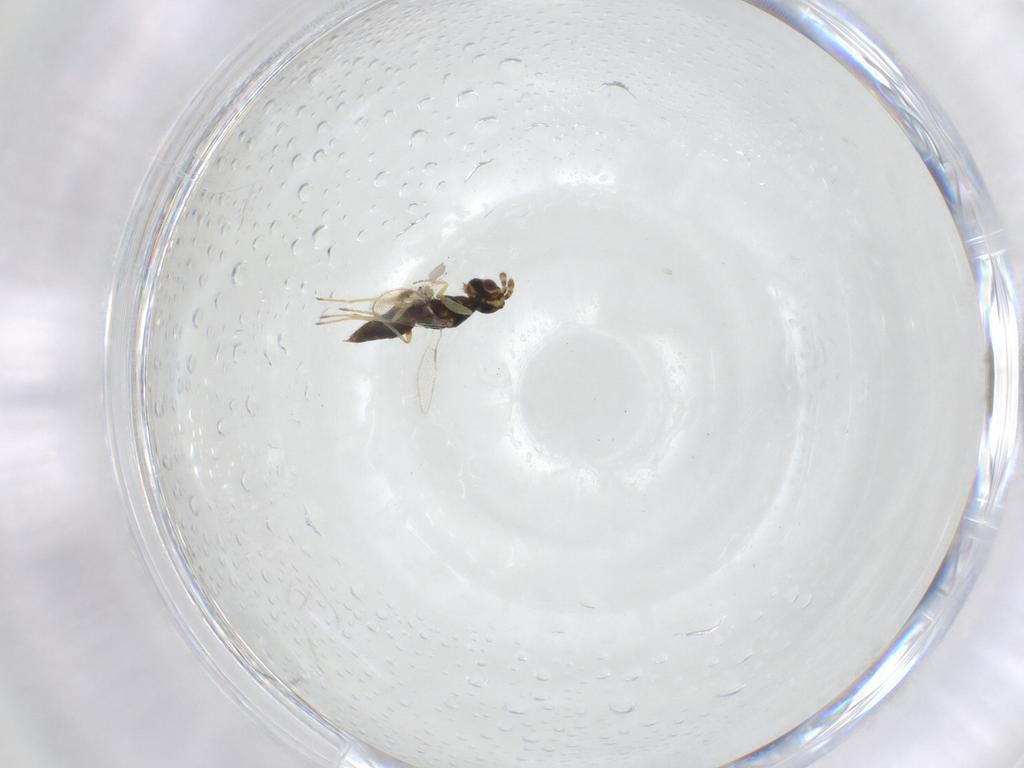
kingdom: Animalia
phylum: Arthropoda
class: Insecta
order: Hymenoptera
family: Eulophidae
